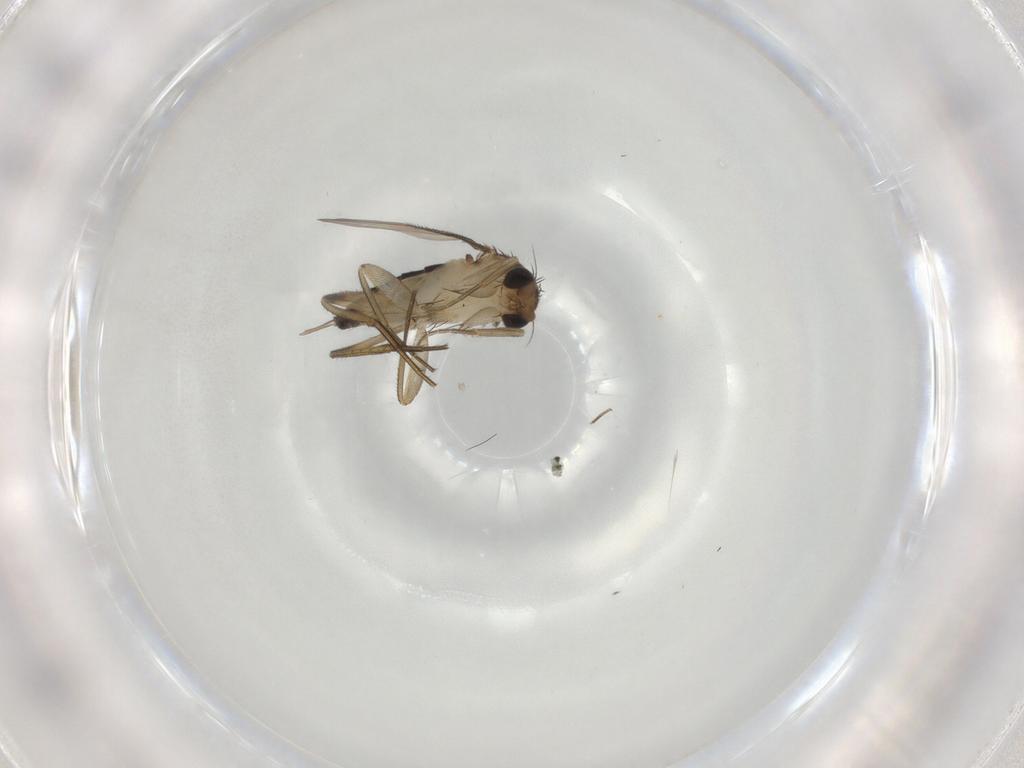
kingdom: Animalia
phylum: Arthropoda
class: Insecta
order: Diptera
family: Phoridae
